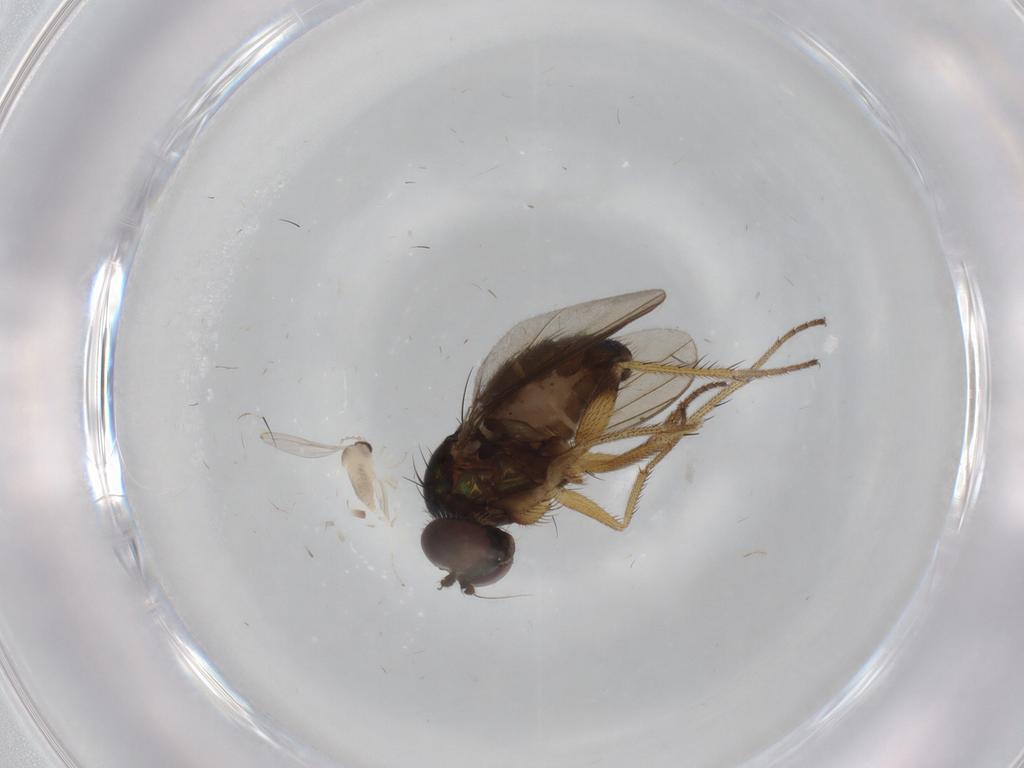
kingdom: Animalia
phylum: Arthropoda
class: Insecta
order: Diptera
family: Dolichopodidae
